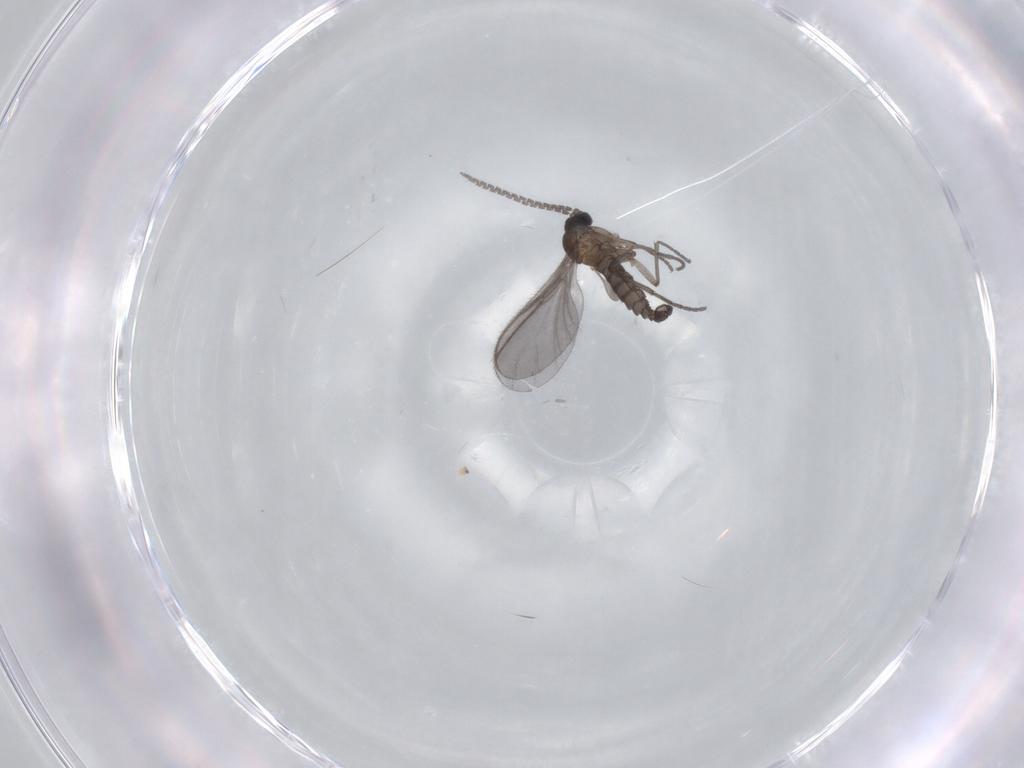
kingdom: Animalia
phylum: Arthropoda
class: Insecta
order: Diptera
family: Sciaridae
